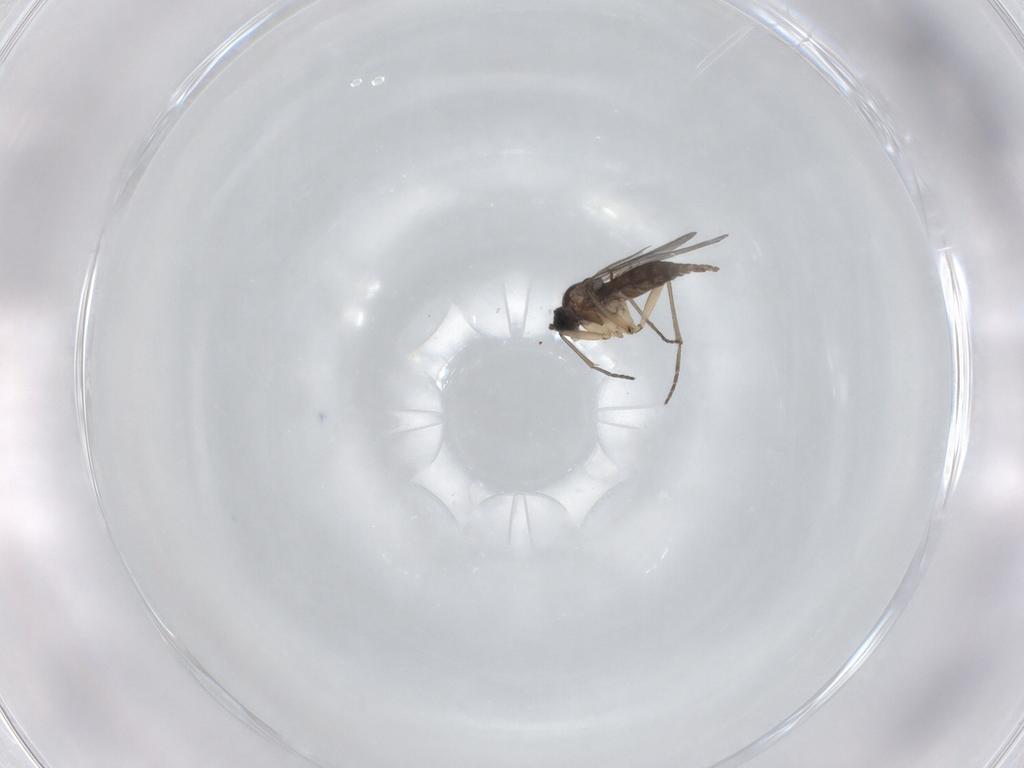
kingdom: Animalia
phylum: Arthropoda
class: Insecta
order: Diptera
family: Sciaridae
